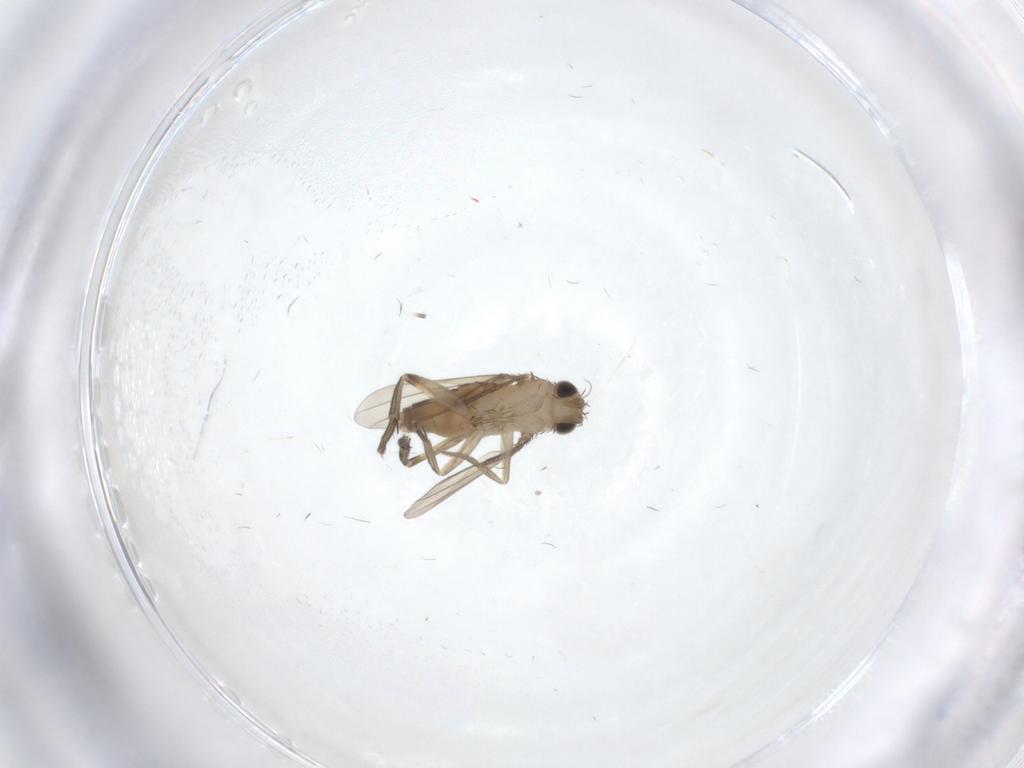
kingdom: Animalia
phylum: Arthropoda
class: Insecta
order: Diptera
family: Phoridae
